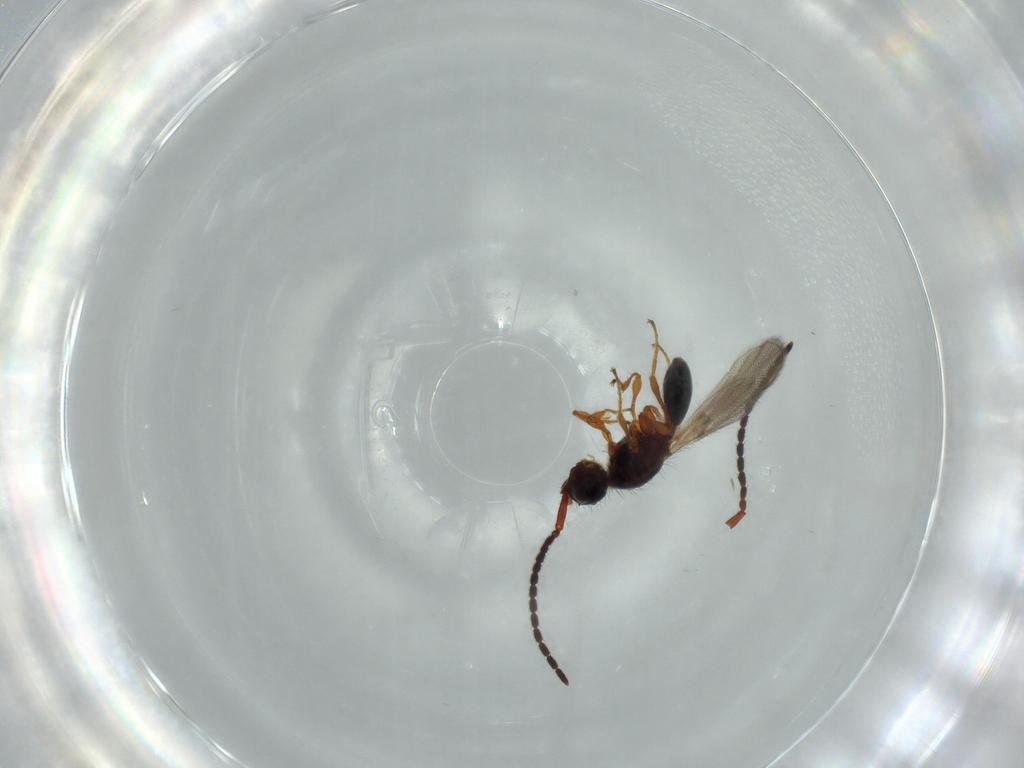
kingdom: Animalia
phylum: Arthropoda
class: Insecta
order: Hymenoptera
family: Diapriidae
